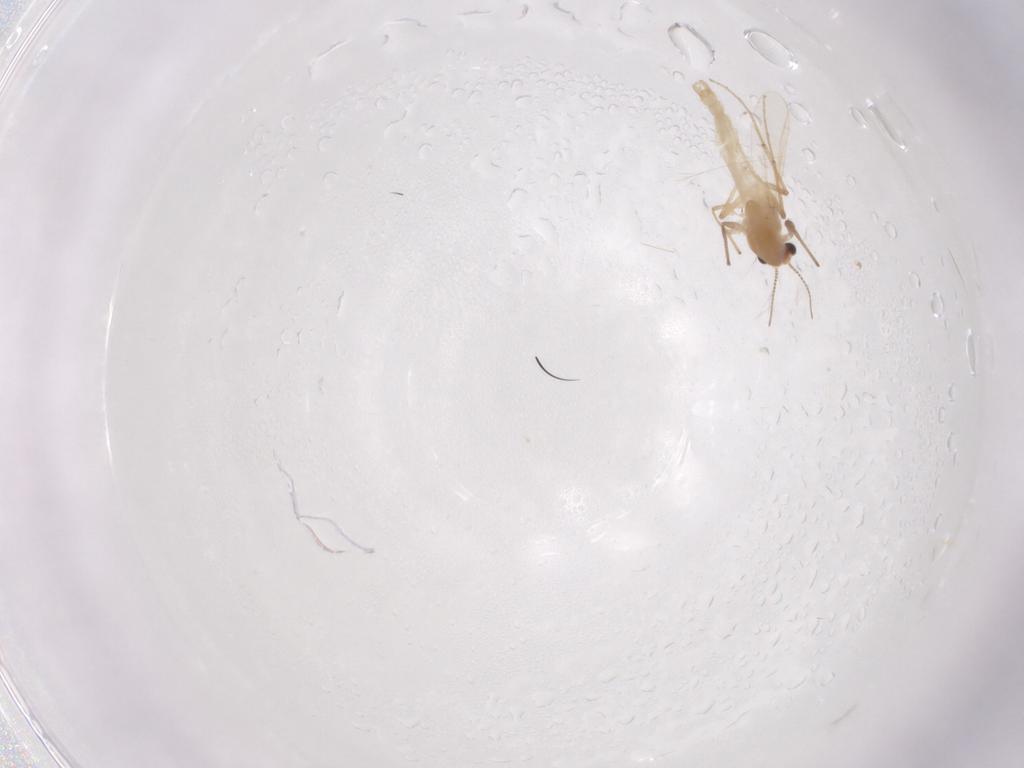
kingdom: Animalia
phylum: Arthropoda
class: Insecta
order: Diptera
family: Chironomidae
